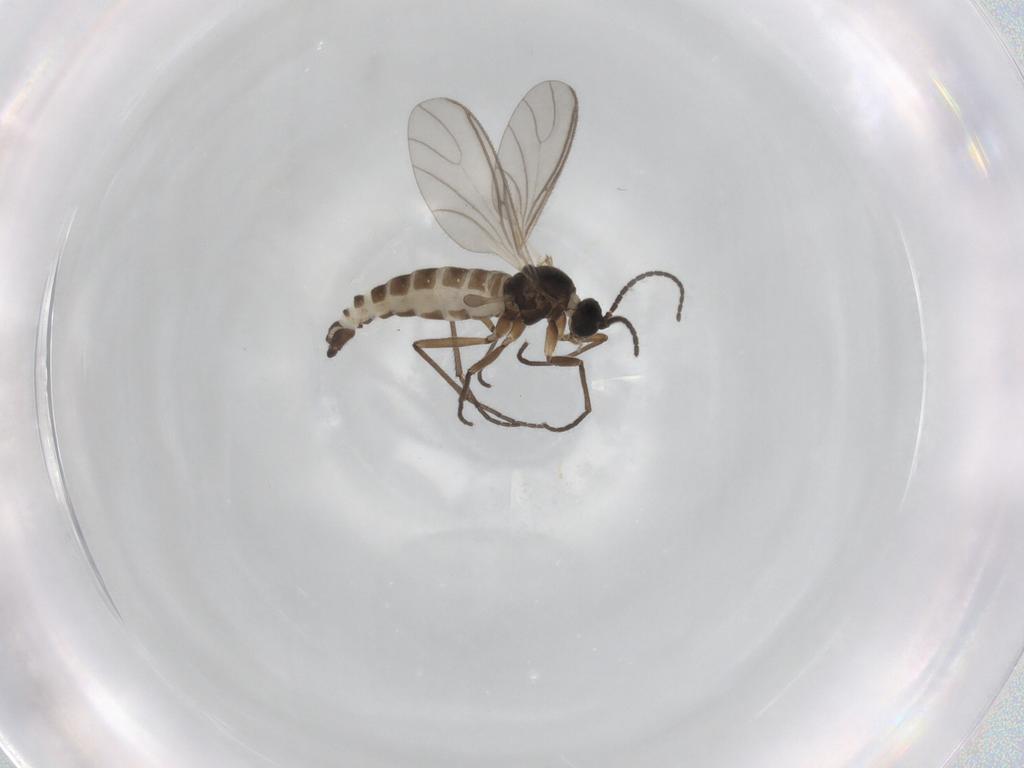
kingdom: Animalia
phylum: Arthropoda
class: Insecta
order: Diptera
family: Sciaridae
